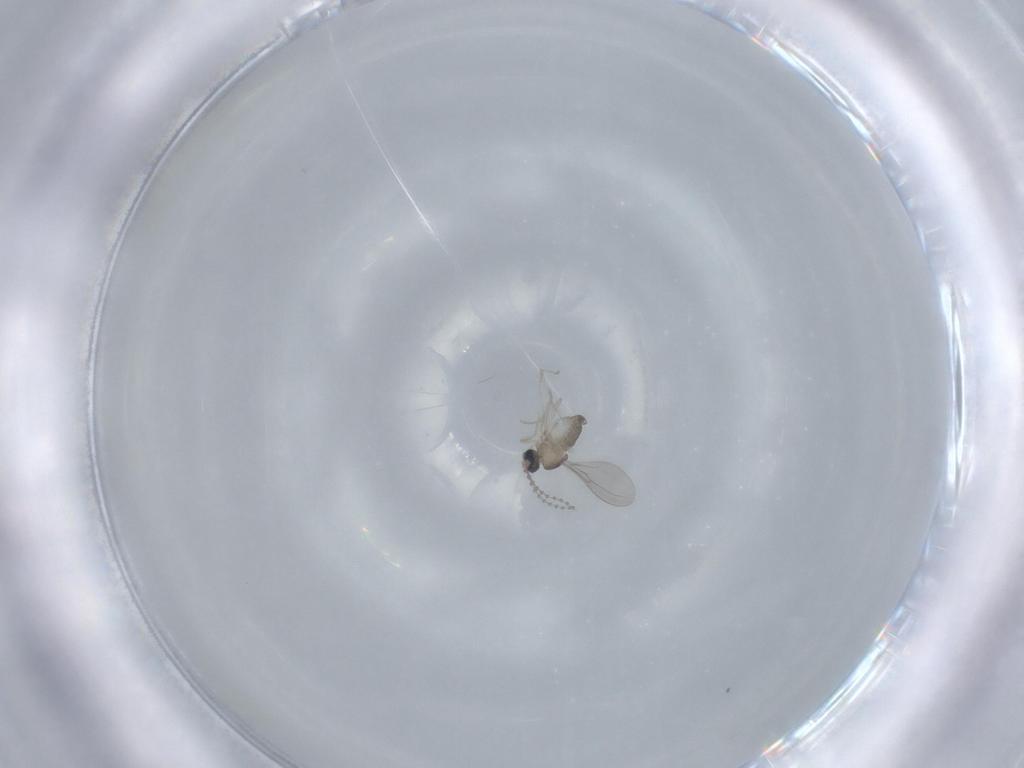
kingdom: Animalia
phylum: Arthropoda
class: Insecta
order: Diptera
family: Cecidomyiidae
